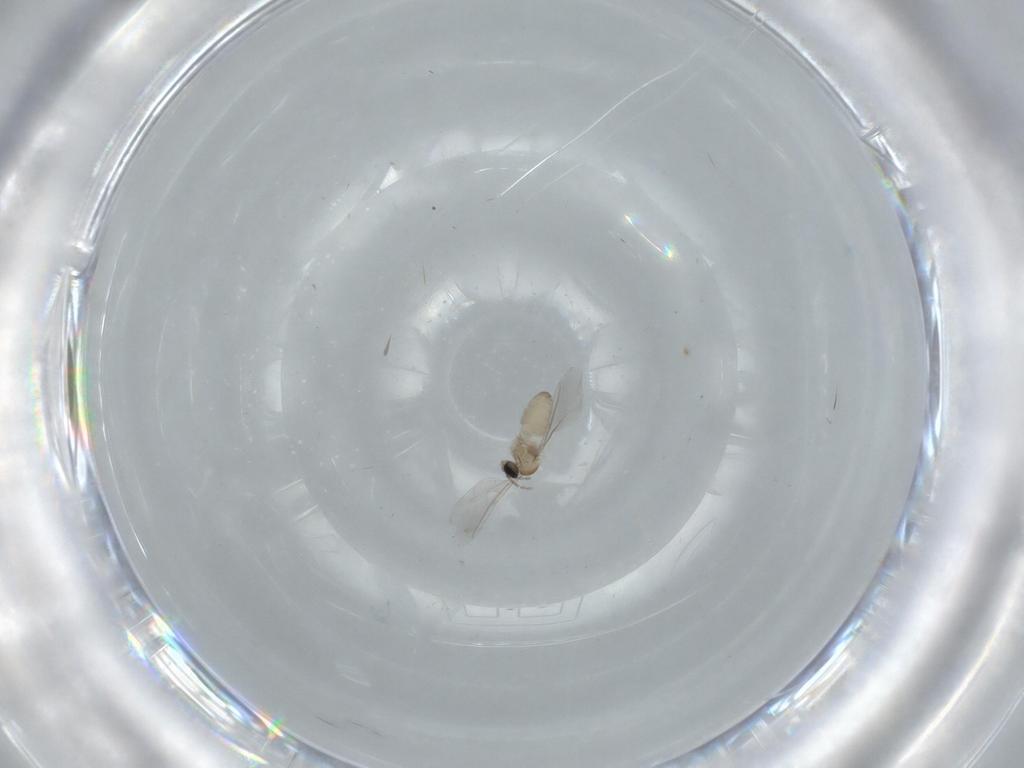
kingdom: Animalia
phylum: Arthropoda
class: Insecta
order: Diptera
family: Cecidomyiidae
